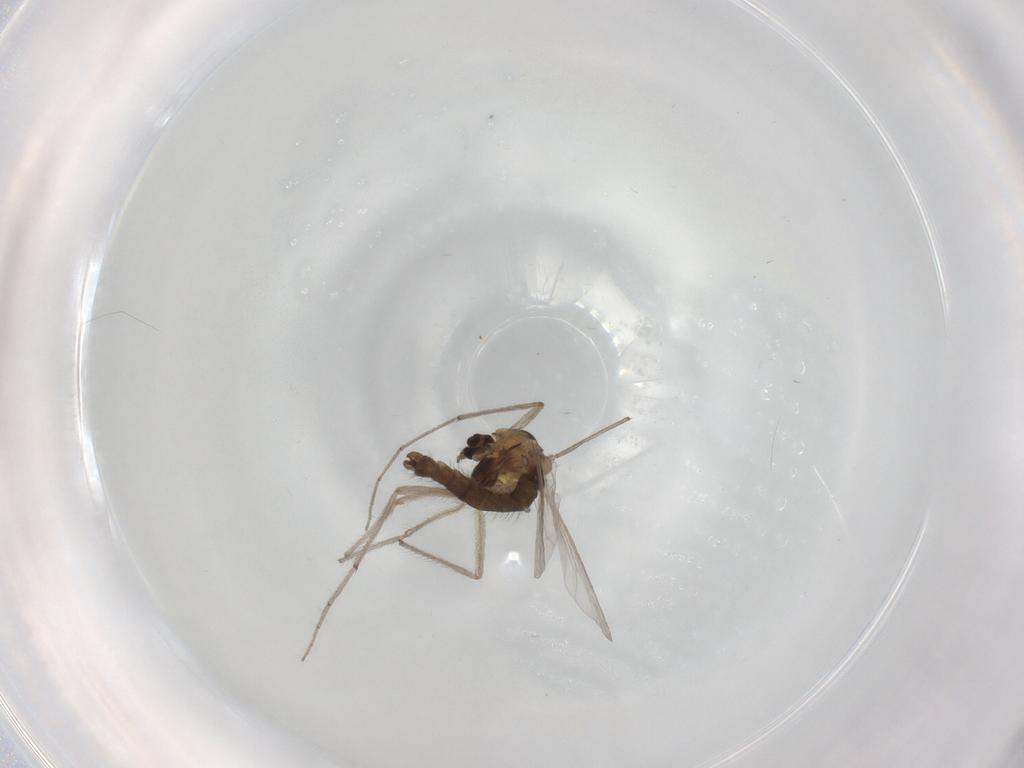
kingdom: Animalia
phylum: Arthropoda
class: Insecta
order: Diptera
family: Chironomidae
